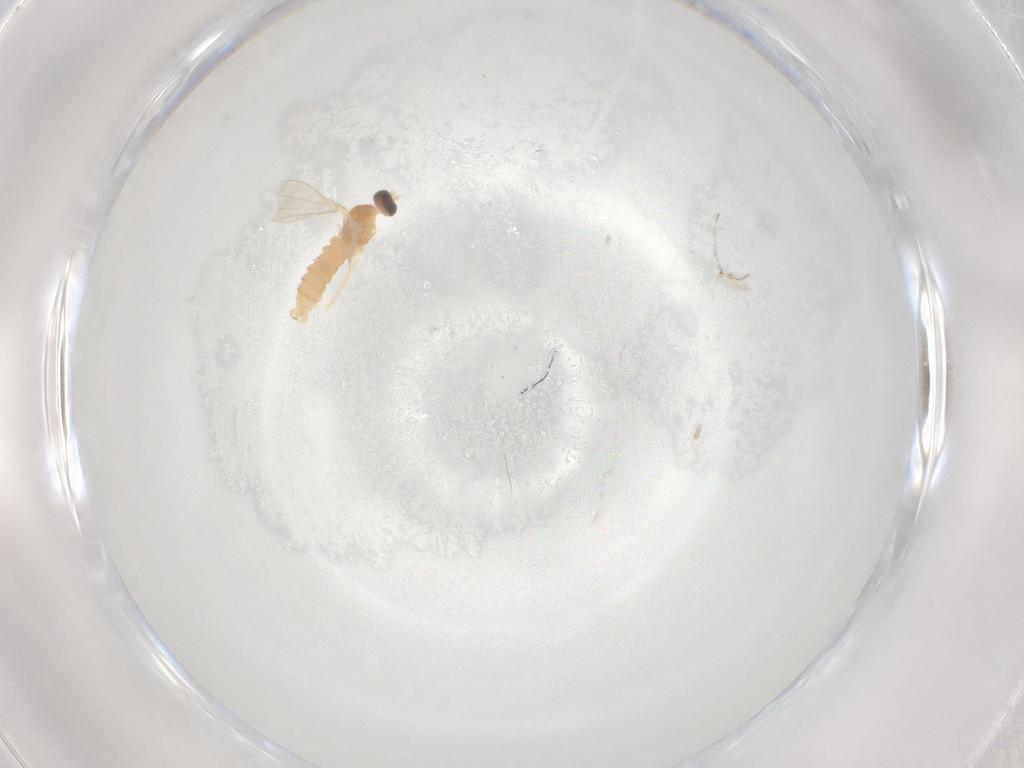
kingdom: Animalia
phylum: Arthropoda
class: Insecta
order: Diptera
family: Cecidomyiidae
